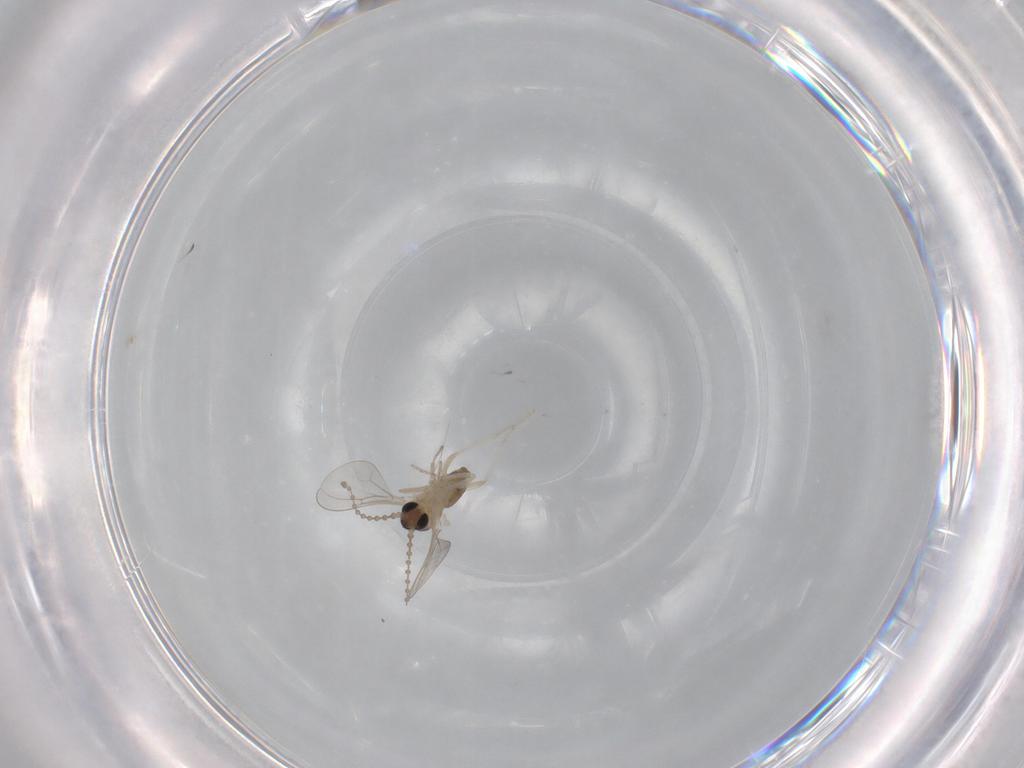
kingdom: Animalia
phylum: Arthropoda
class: Insecta
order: Diptera
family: Cecidomyiidae
